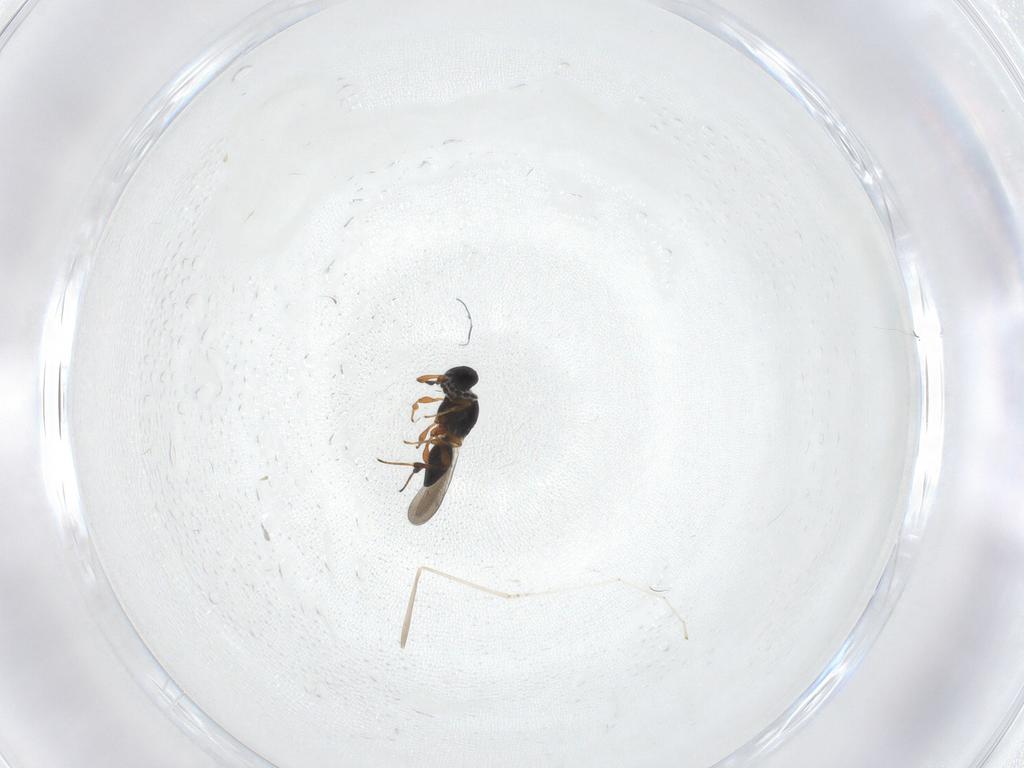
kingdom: Animalia
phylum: Arthropoda
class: Insecta
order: Hymenoptera
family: Platygastridae
